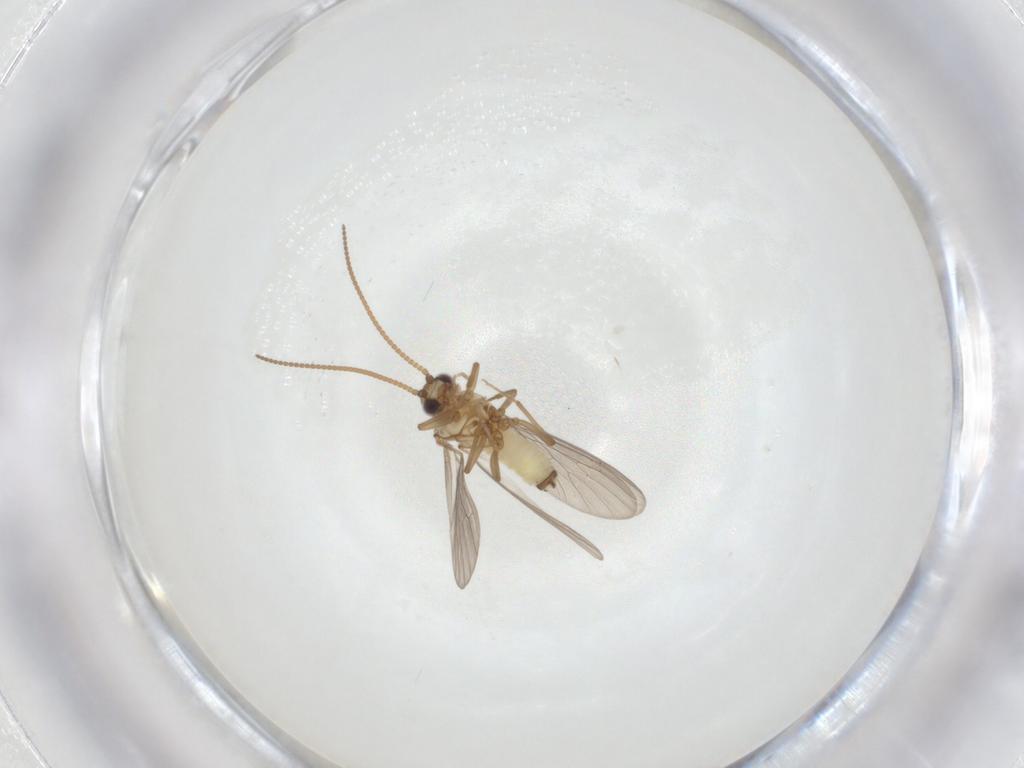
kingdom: Animalia
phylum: Arthropoda
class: Insecta
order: Neuroptera
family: Coniopterygidae
